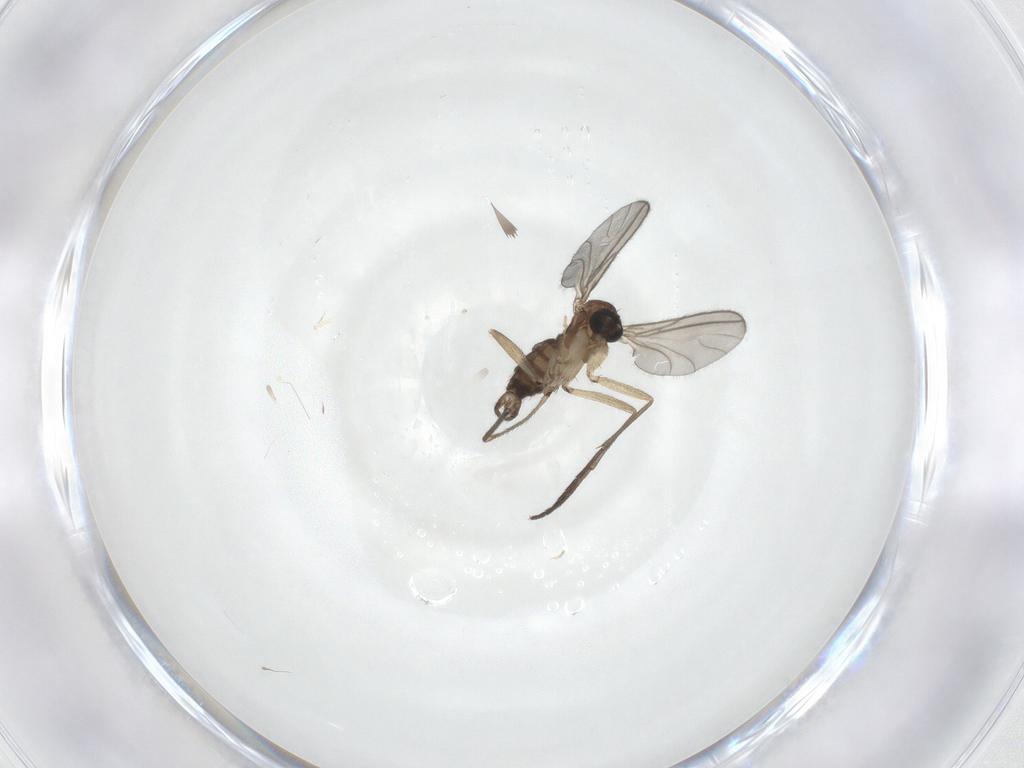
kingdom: Animalia
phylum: Arthropoda
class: Insecta
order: Diptera
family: Sciaridae
